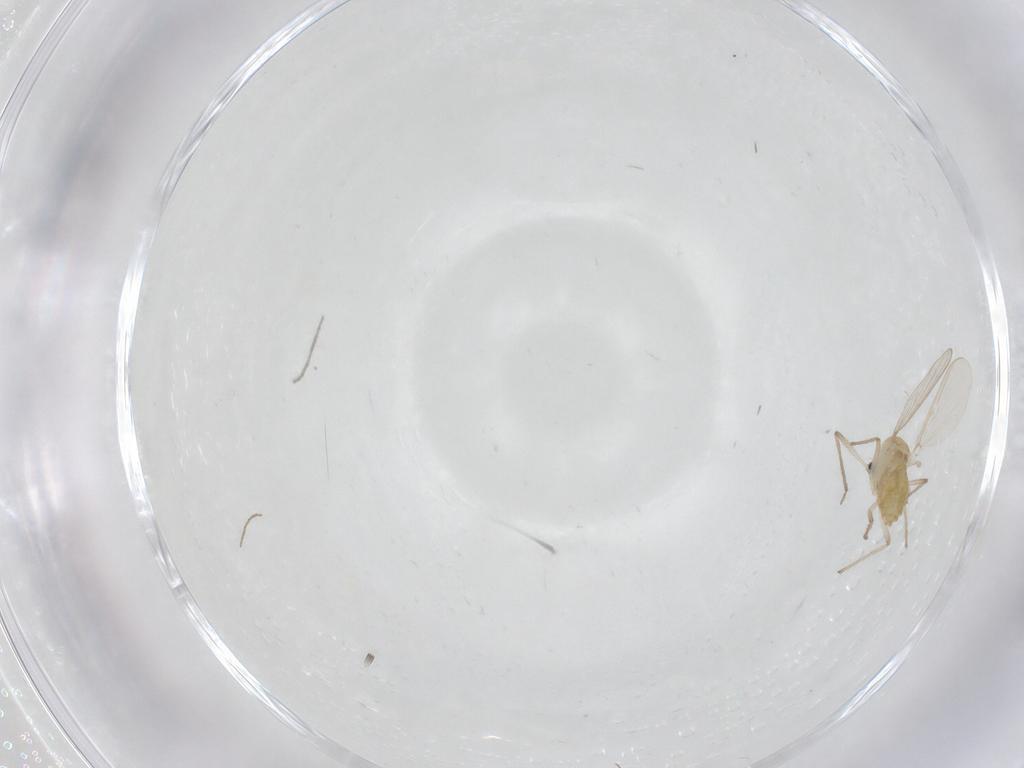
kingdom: Animalia
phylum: Arthropoda
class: Insecta
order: Diptera
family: Chironomidae
